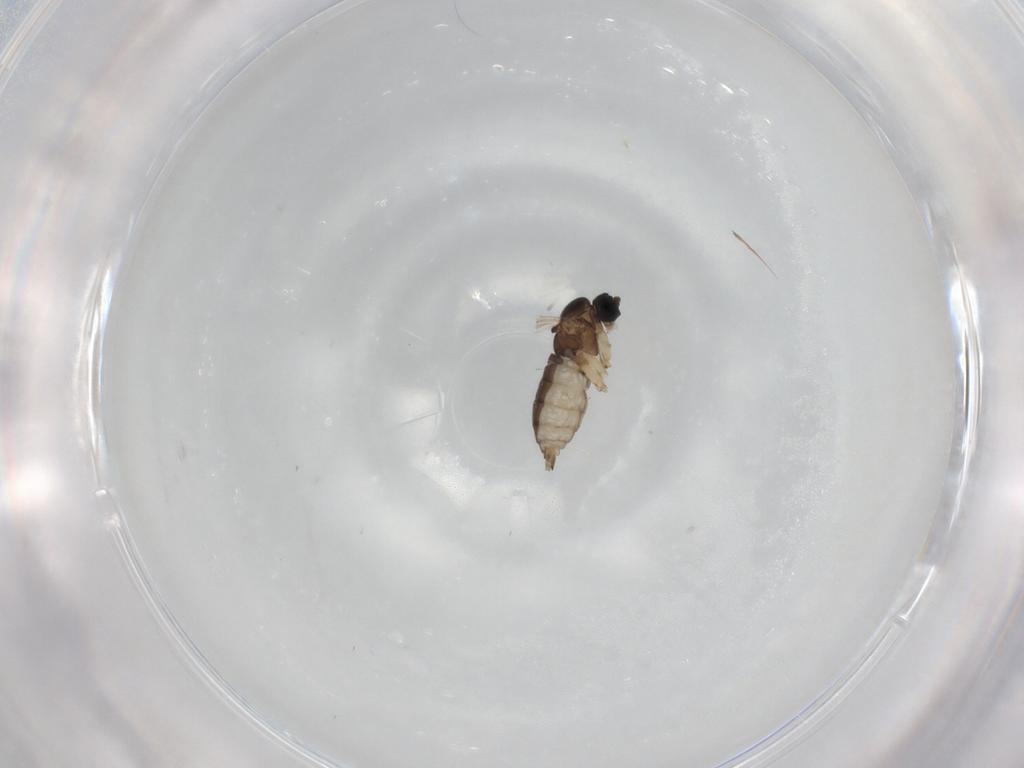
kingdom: Animalia
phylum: Arthropoda
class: Insecta
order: Diptera
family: Sciaridae
